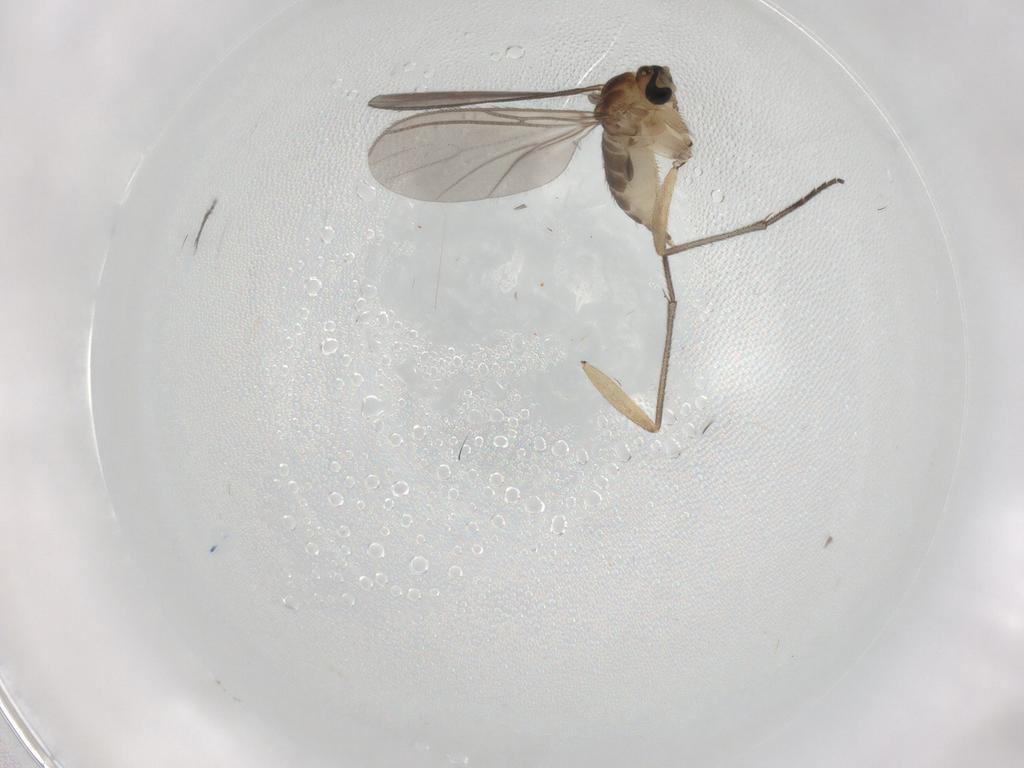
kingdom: Animalia
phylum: Arthropoda
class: Insecta
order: Diptera
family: Sciaridae
